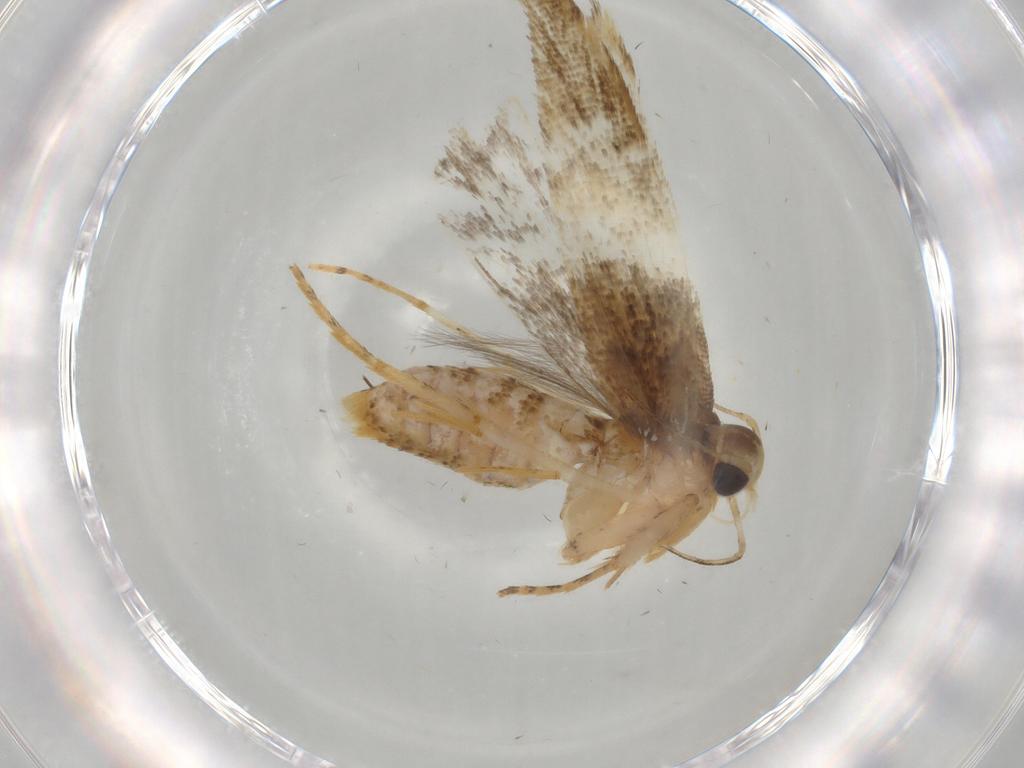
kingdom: Animalia
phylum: Arthropoda
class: Insecta
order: Lepidoptera
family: Gelechiidae
